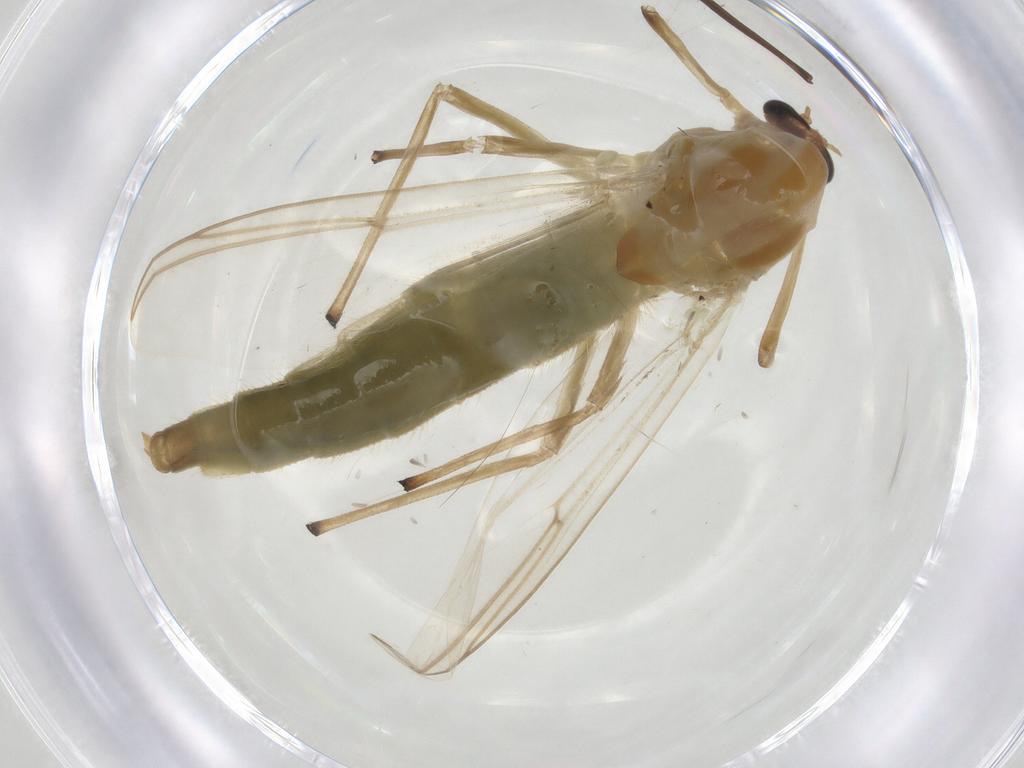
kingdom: Animalia
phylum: Arthropoda
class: Insecta
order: Diptera
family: Chironomidae
